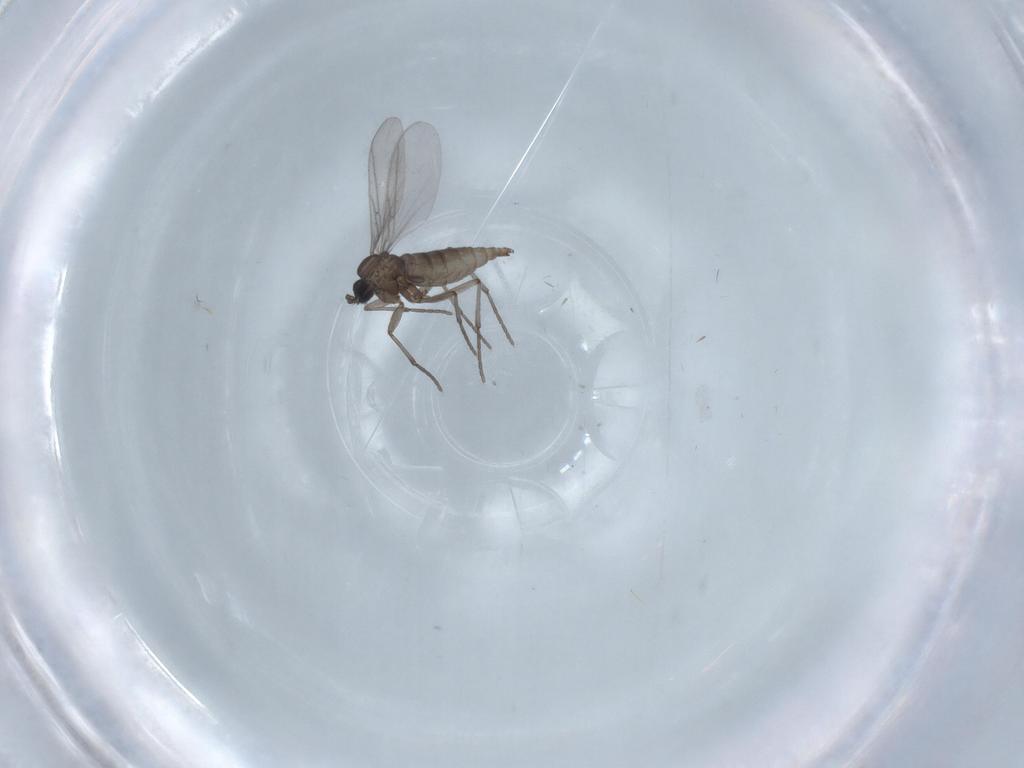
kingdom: Animalia
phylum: Arthropoda
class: Insecta
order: Diptera
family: Sciaridae
